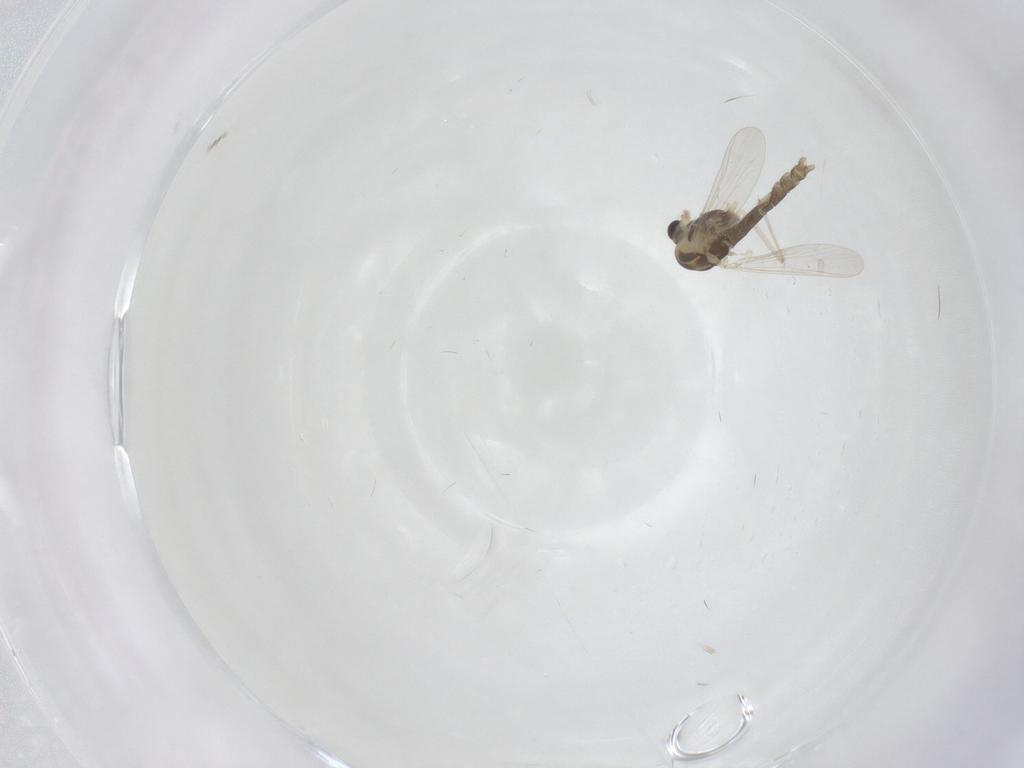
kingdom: Animalia
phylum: Arthropoda
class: Insecta
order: Diptera
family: Chironomidae
